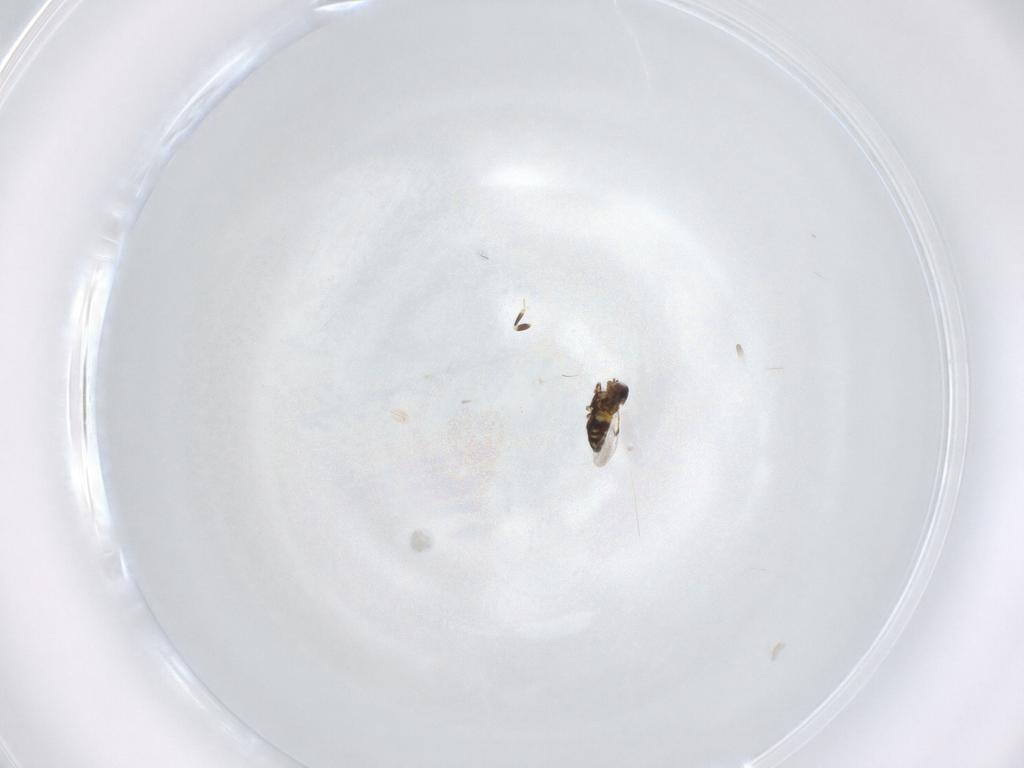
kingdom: Animalia
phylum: Arthropoda
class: Insecta
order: Hymenoptera
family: Trichogrammatidae
